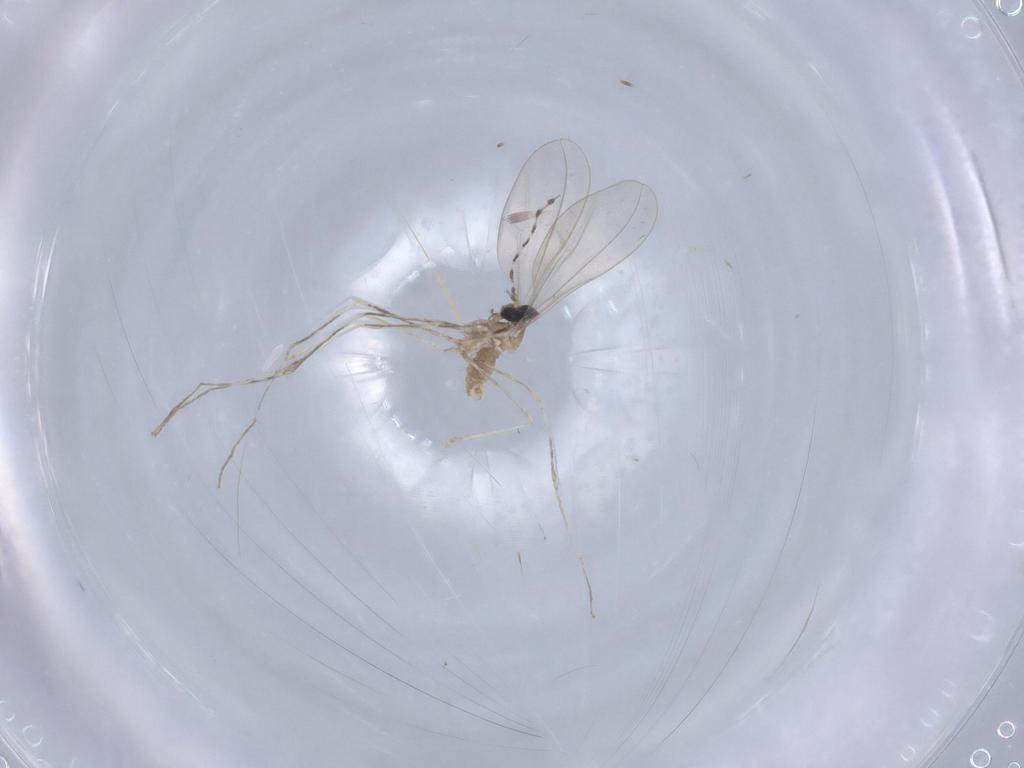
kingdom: Animalia
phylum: Arthropoda
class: Insecta
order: Diptera
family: Cecidomyiidae
